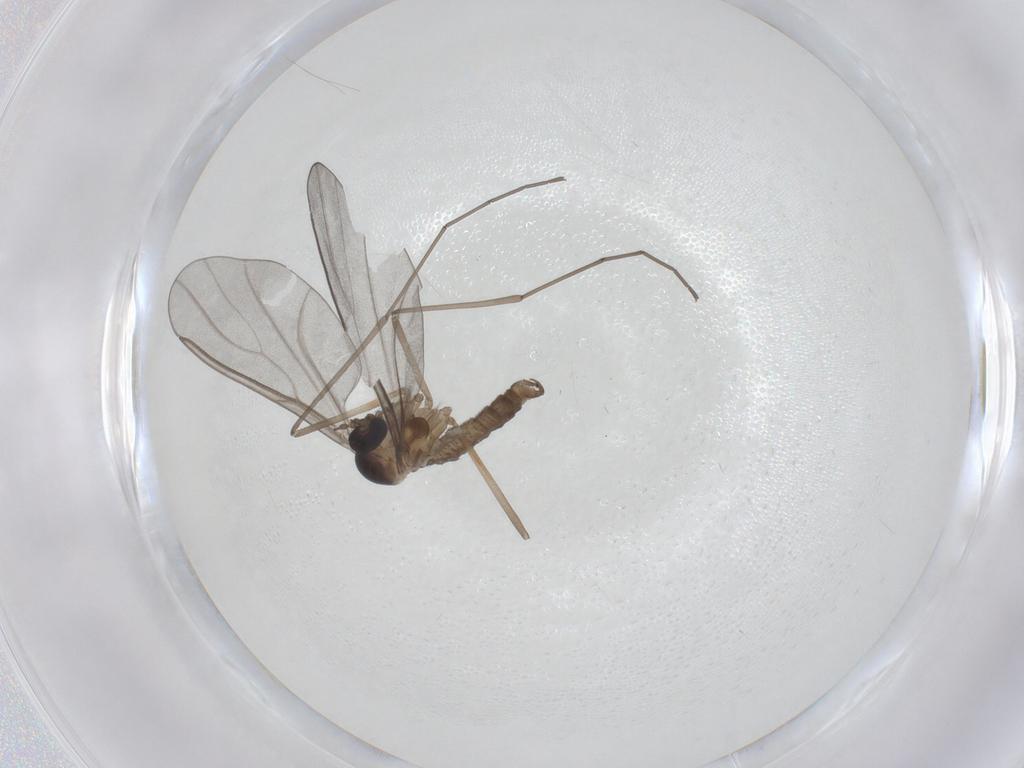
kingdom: Animalia
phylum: Arthropoda
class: Insecta
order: Diptera
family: Cecidomyiidae
